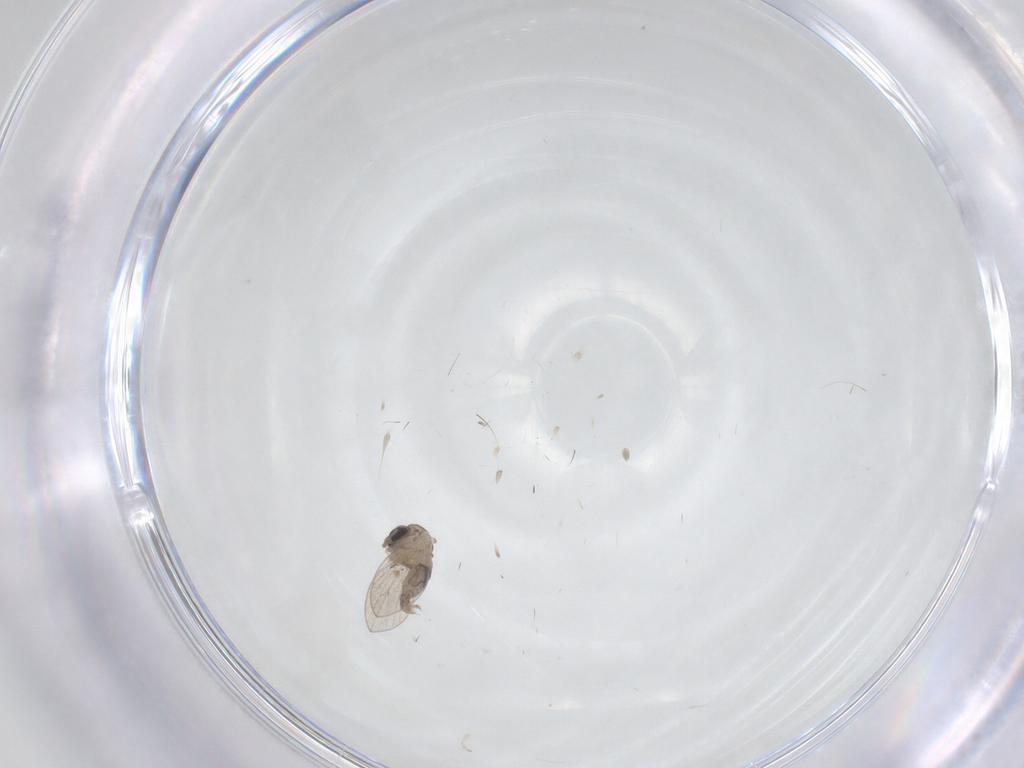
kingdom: Animalia
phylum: Arthropoda
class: Insecta
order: Diptera
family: Psychodidae
